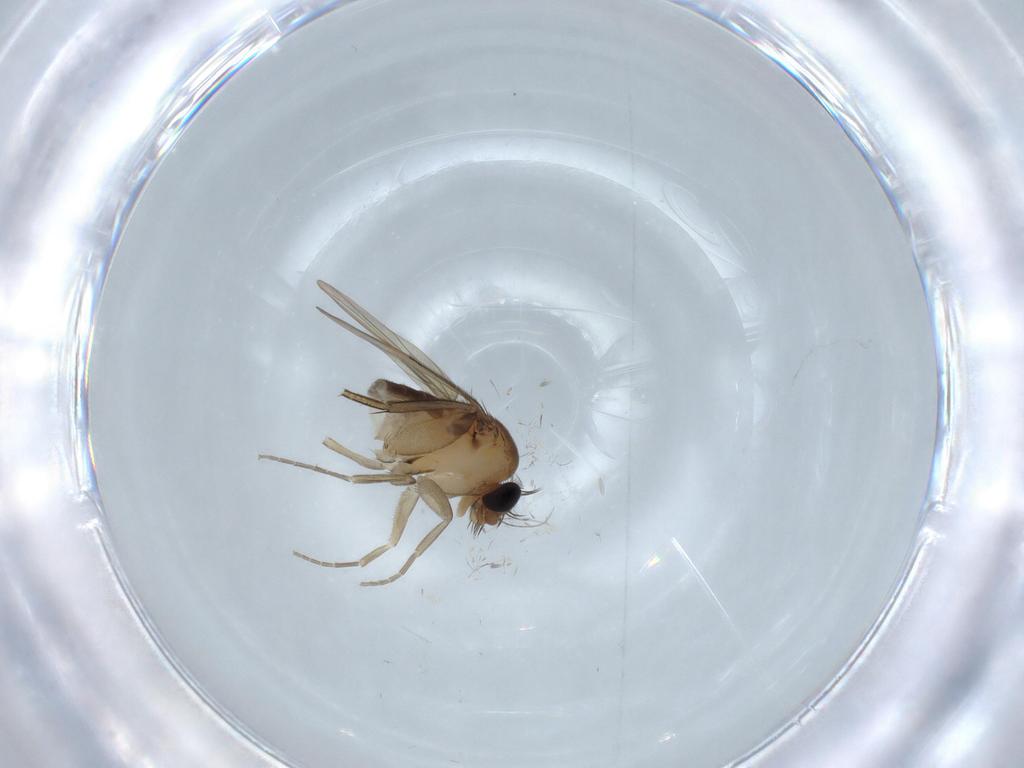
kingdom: Animalia
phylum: Arthropoda
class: Insecta
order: Diptera
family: Phoridae
